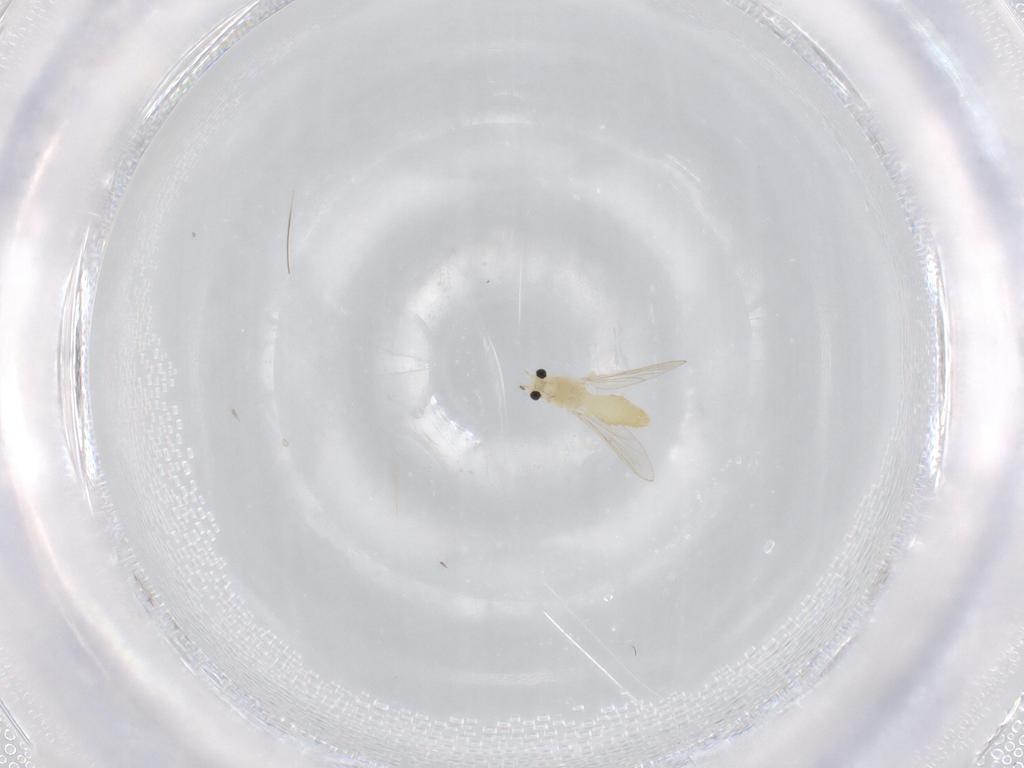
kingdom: Animalia
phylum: Arthropoda
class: Insecta
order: Diptera
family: Chironomidae
